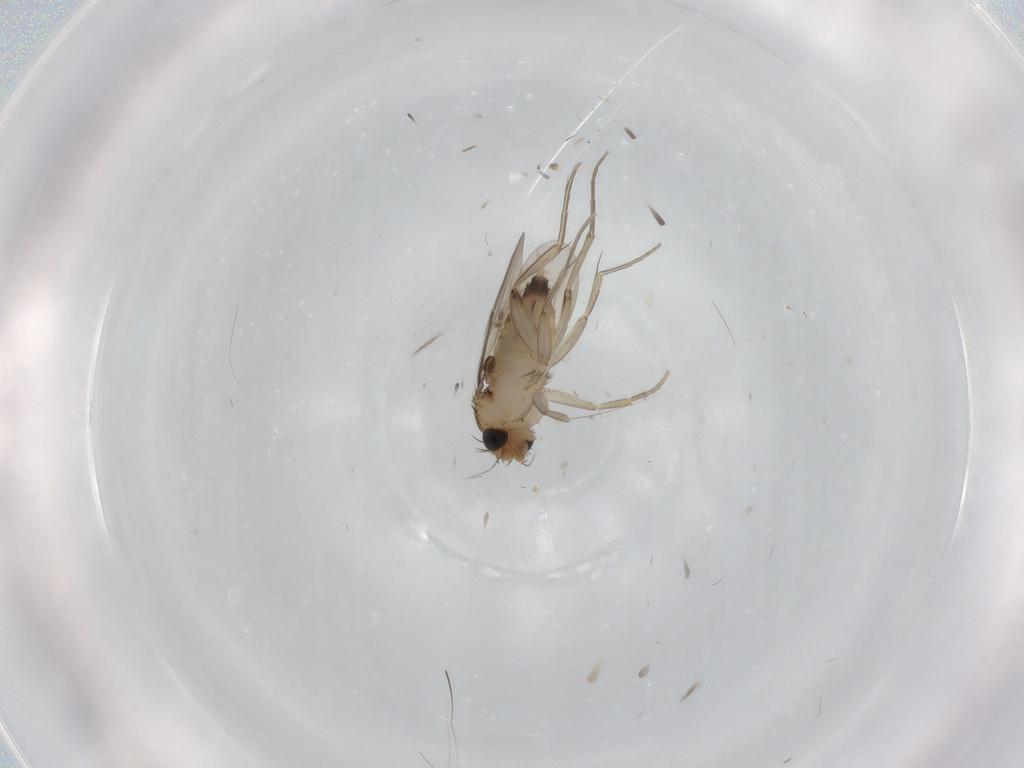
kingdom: Animalia
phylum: Arthropoda
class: Insecta
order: Diptera
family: Phoridae
